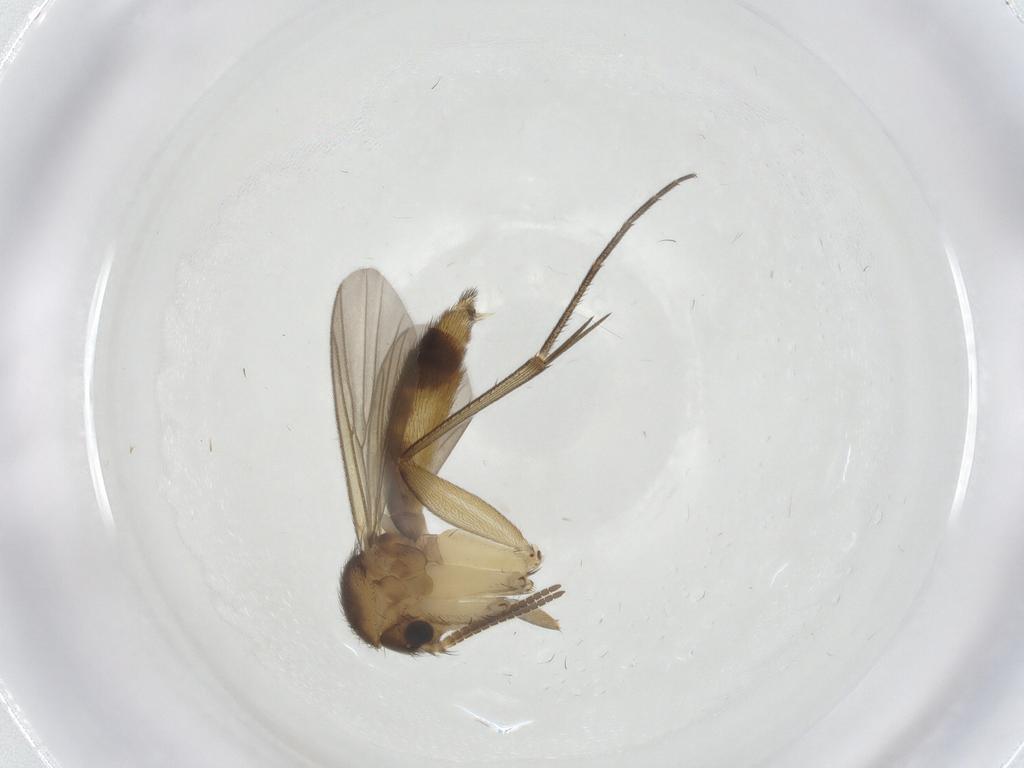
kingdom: Animalia
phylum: Arthropoda
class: Insecta
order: Diptera
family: Mycetophilidae
